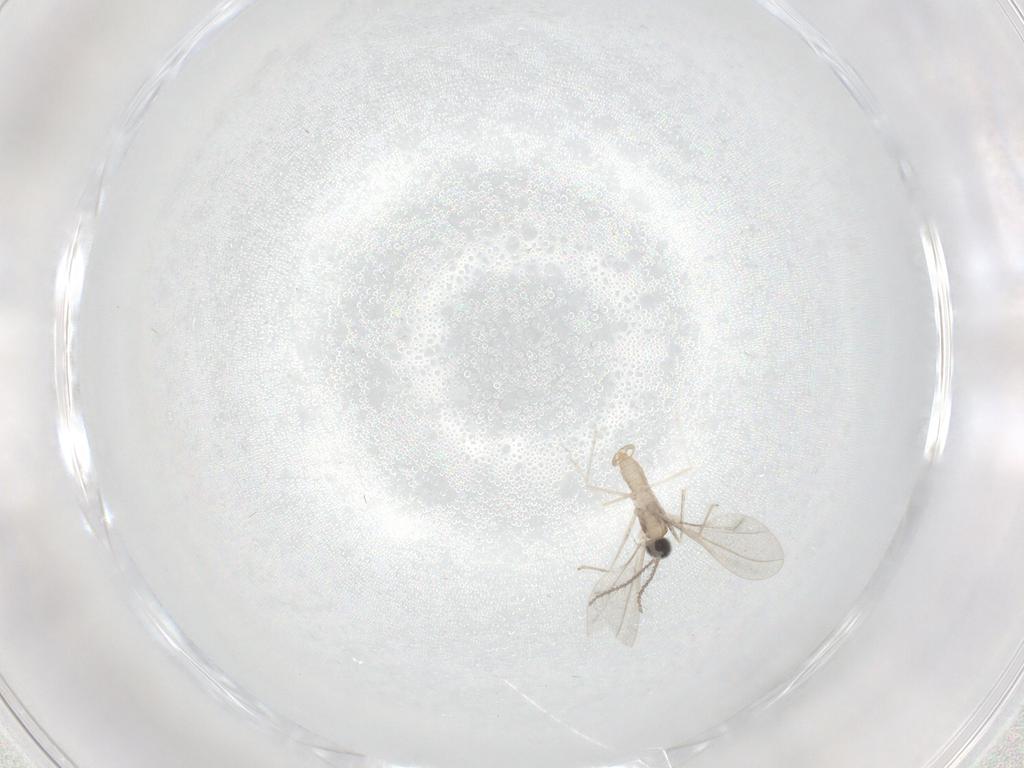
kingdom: Animalia
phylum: Arthropoda
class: Insecta
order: Diptera
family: Cecidomyiidae
